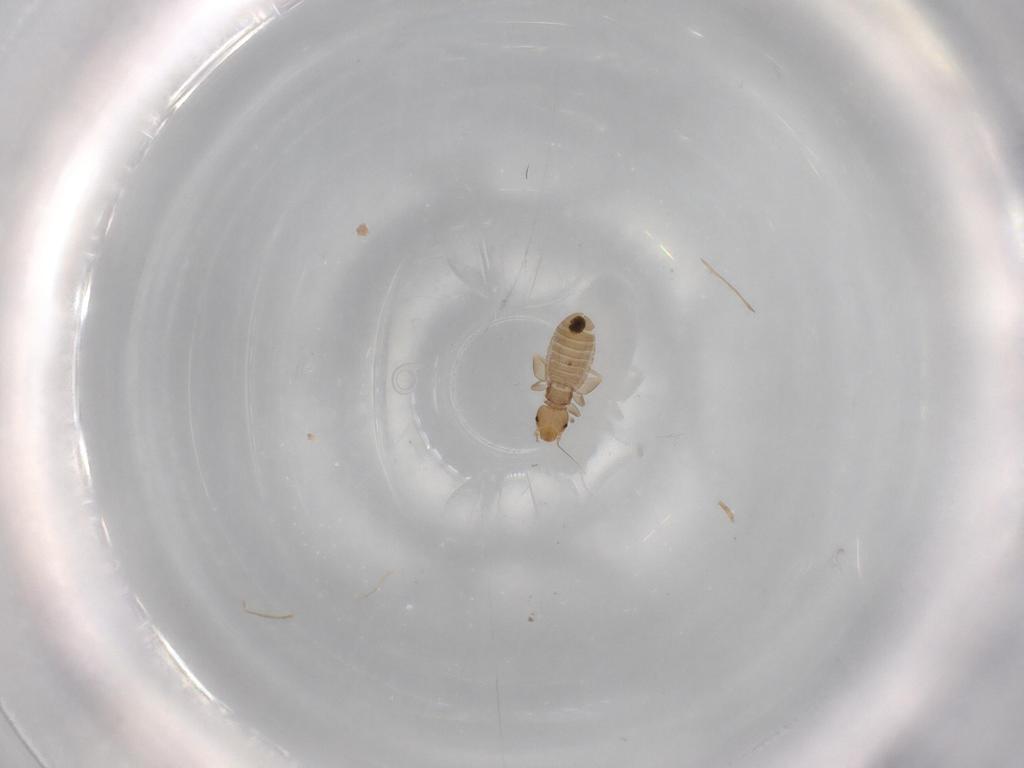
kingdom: Animalia
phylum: Arthropoda
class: Insecta
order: Psocodea
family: Liposcelididae
